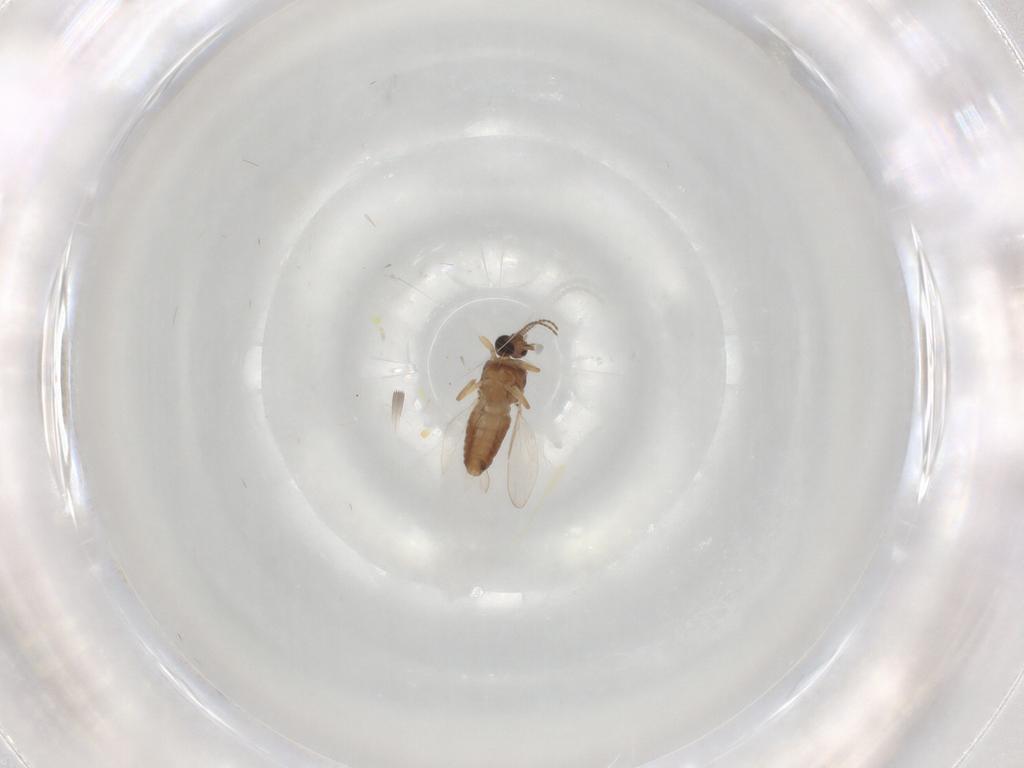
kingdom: Animalia
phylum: Arthropoda
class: Insecta
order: Diptera
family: Ceratopogonidae
